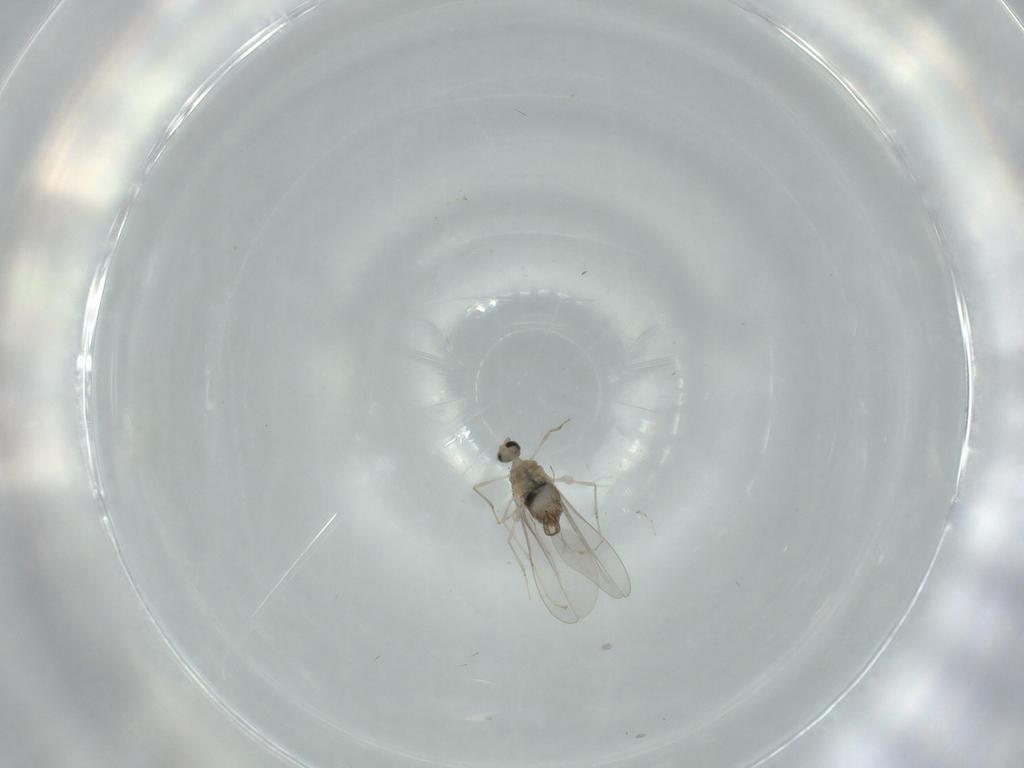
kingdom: Animalia
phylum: Arthropoda
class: Insecta
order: Diptera
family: Cecidomyiidae
